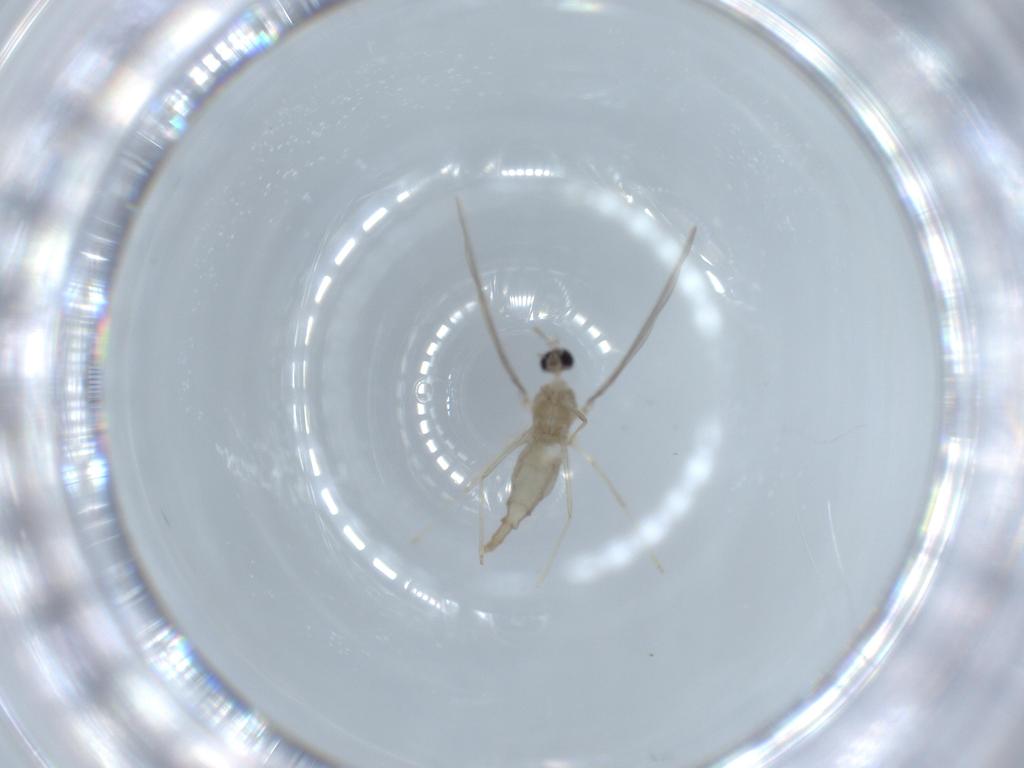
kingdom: Animalia
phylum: Arthropoda
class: Insecta
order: Diptera
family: Cecidomyiidae
